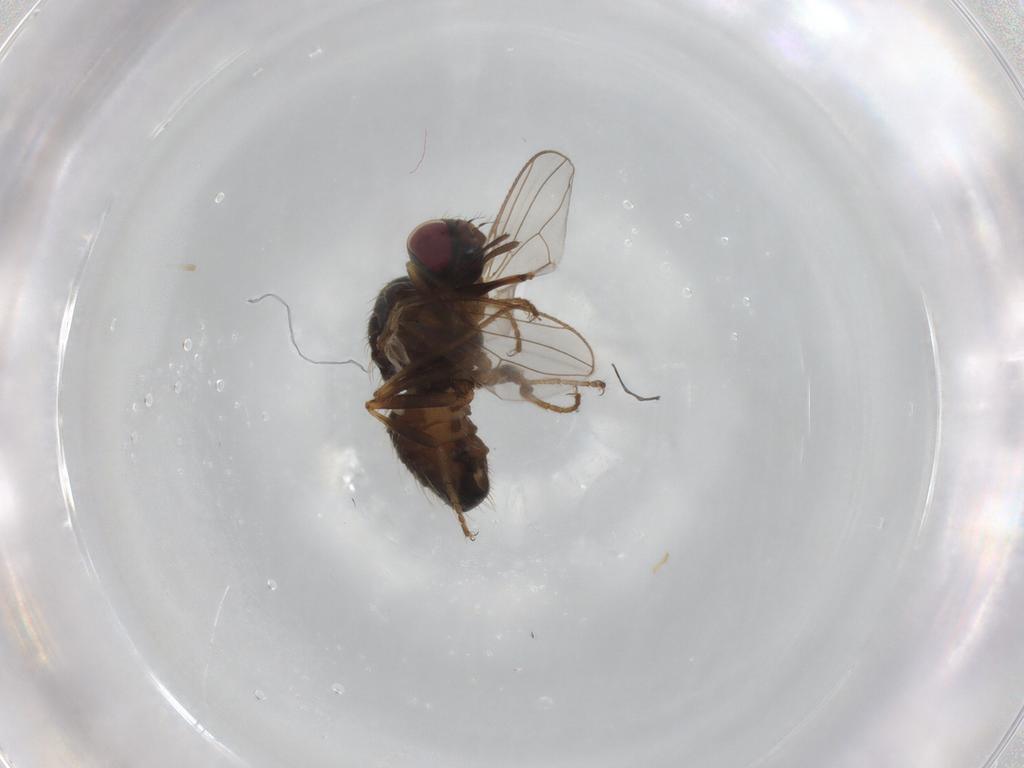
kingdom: Animalia
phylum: Arthropoda
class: Insecta
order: Diptera
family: Muscidae
